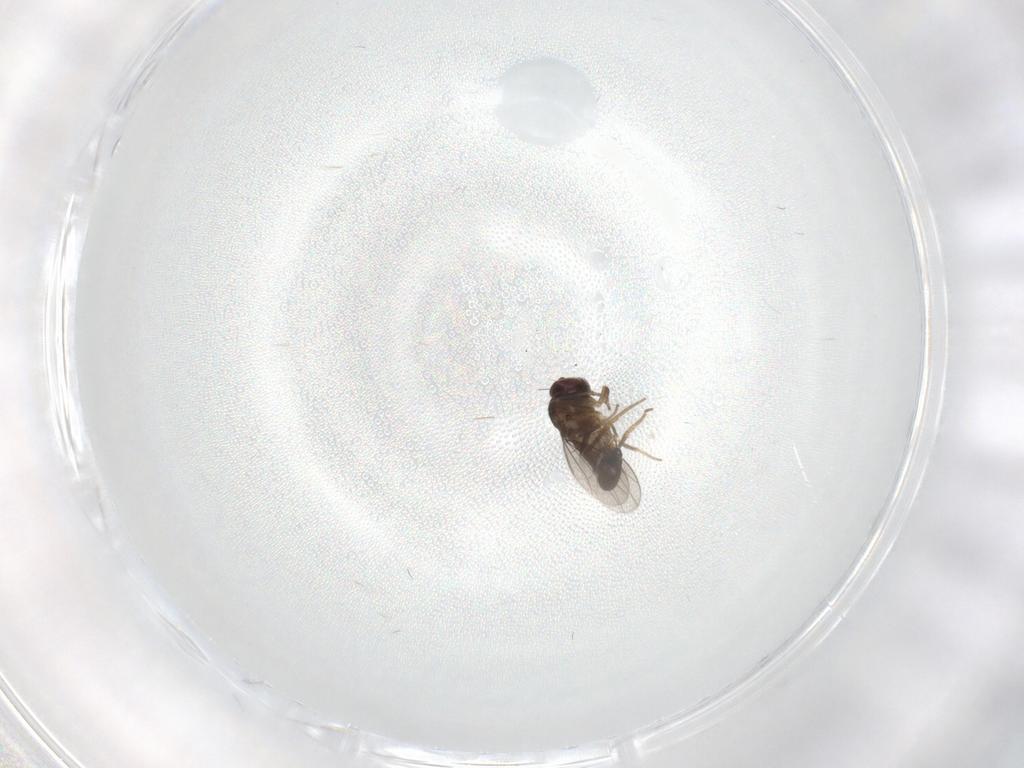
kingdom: Animalia
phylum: Arthropoda
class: Insecta
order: Diptera
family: Dolichopodidae
